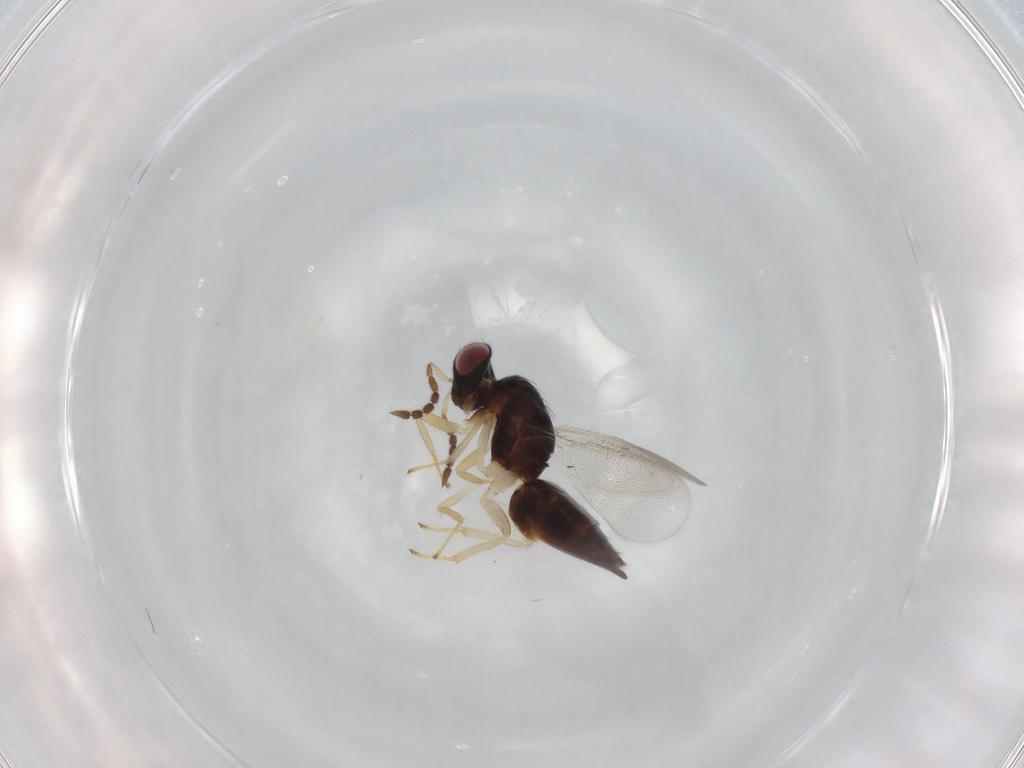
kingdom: Animalia
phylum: Arthropoda
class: Insecta
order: Hymenoptera
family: Eulophidae
